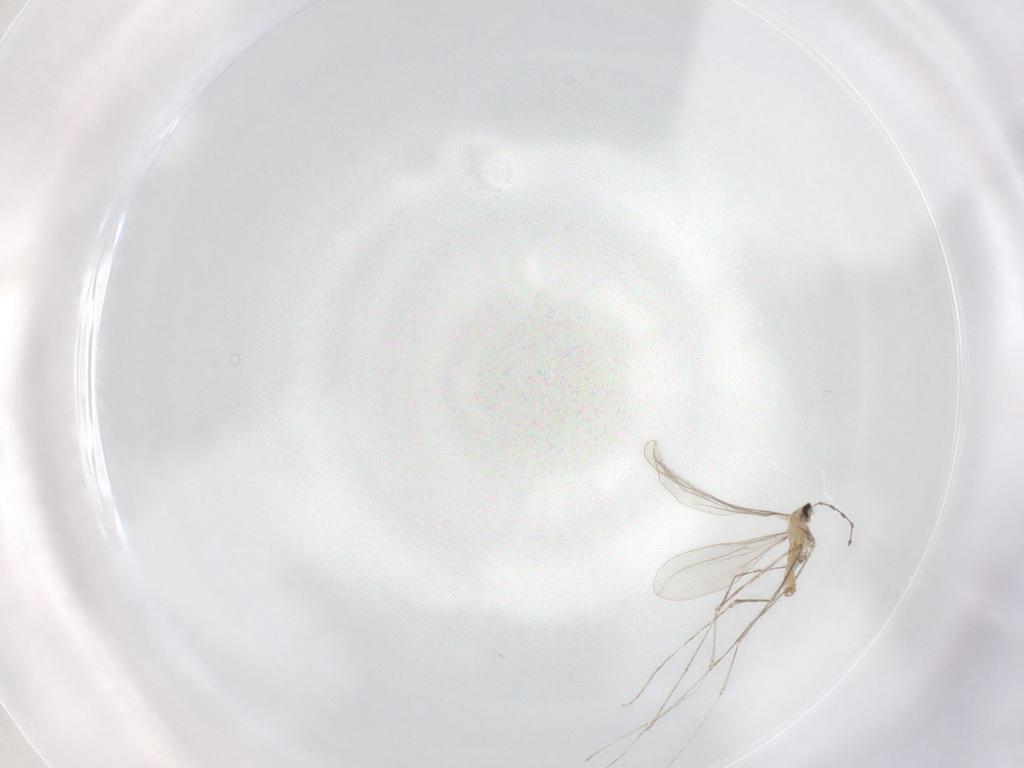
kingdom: Animalia
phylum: Arthropoda
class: Insecta
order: Diptera
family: Cecidomyiidae
